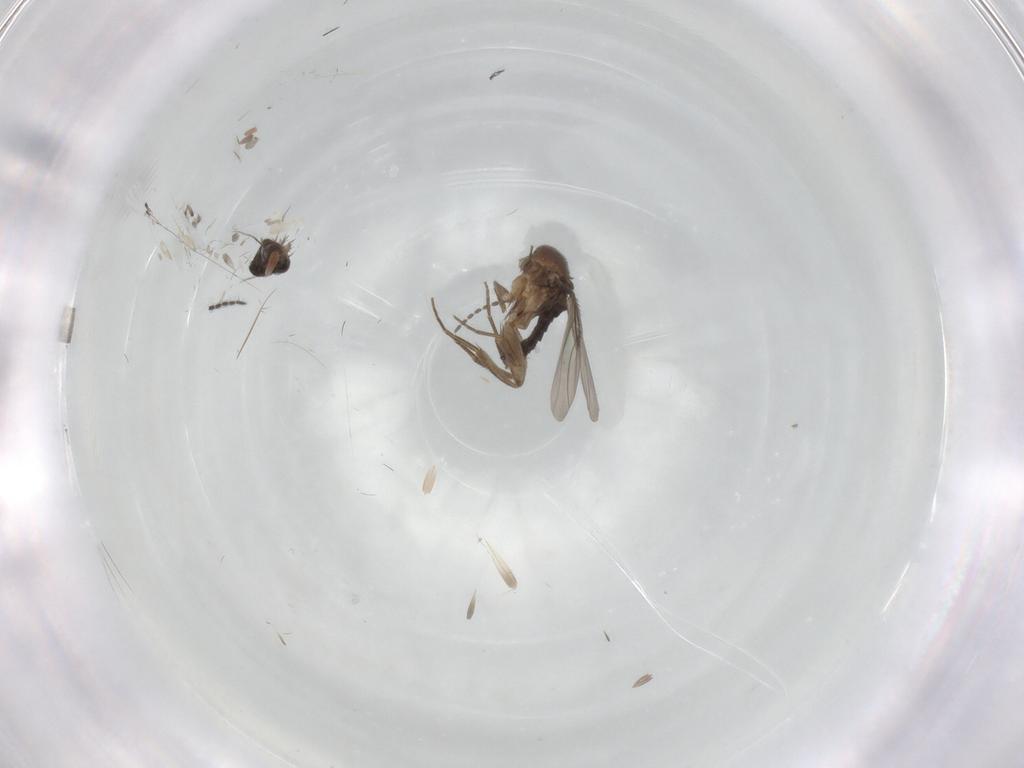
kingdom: Animalia
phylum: Arthropoda
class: Insecta
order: Diptera
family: Phoridae
